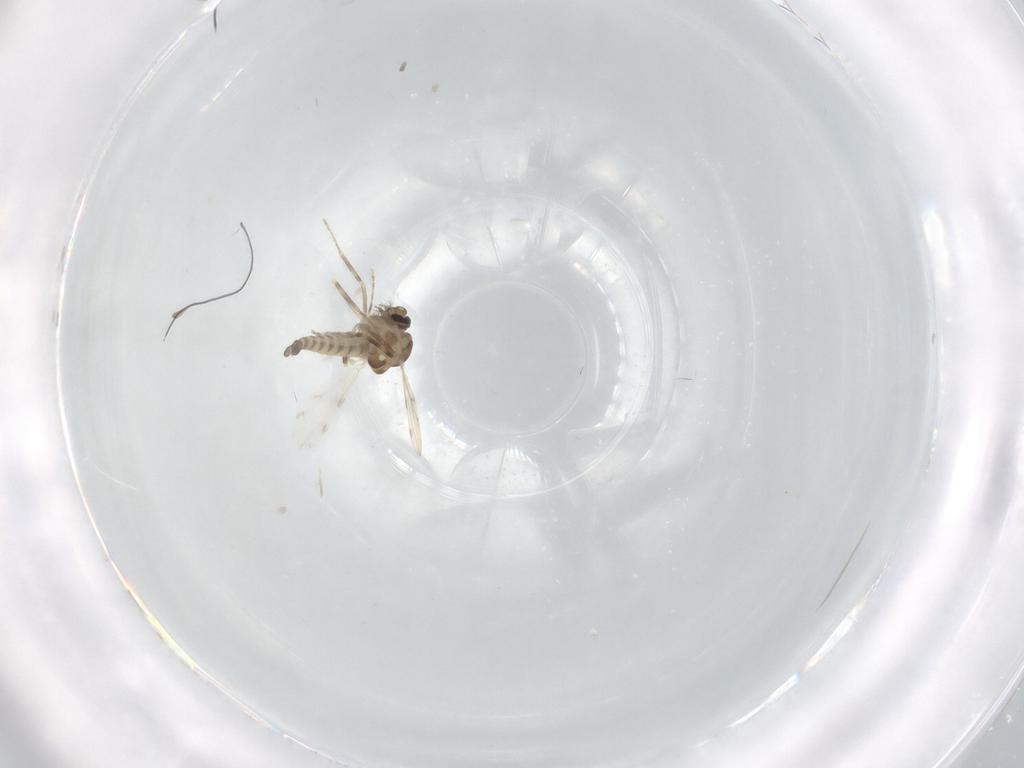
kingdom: Animalia
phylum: Arthropoda
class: Insecta
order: Diptera
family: Ceratopogonidae
